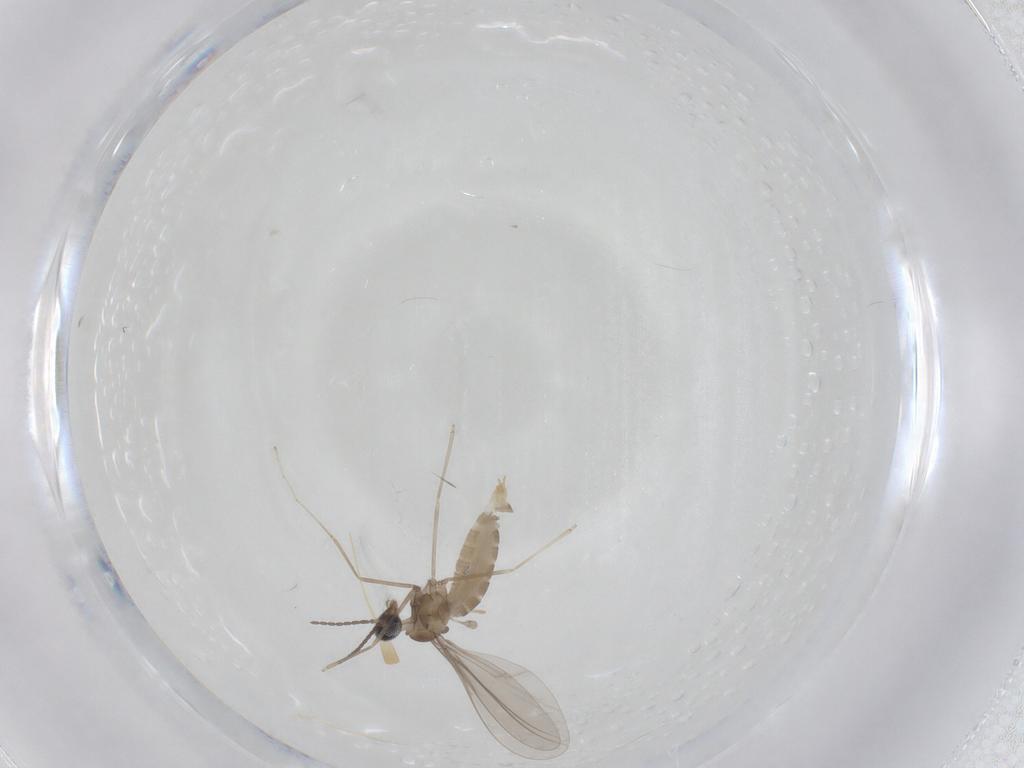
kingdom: Animalia
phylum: Arthropoda
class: Insecta
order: Diptera
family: Cecidomyiidae
